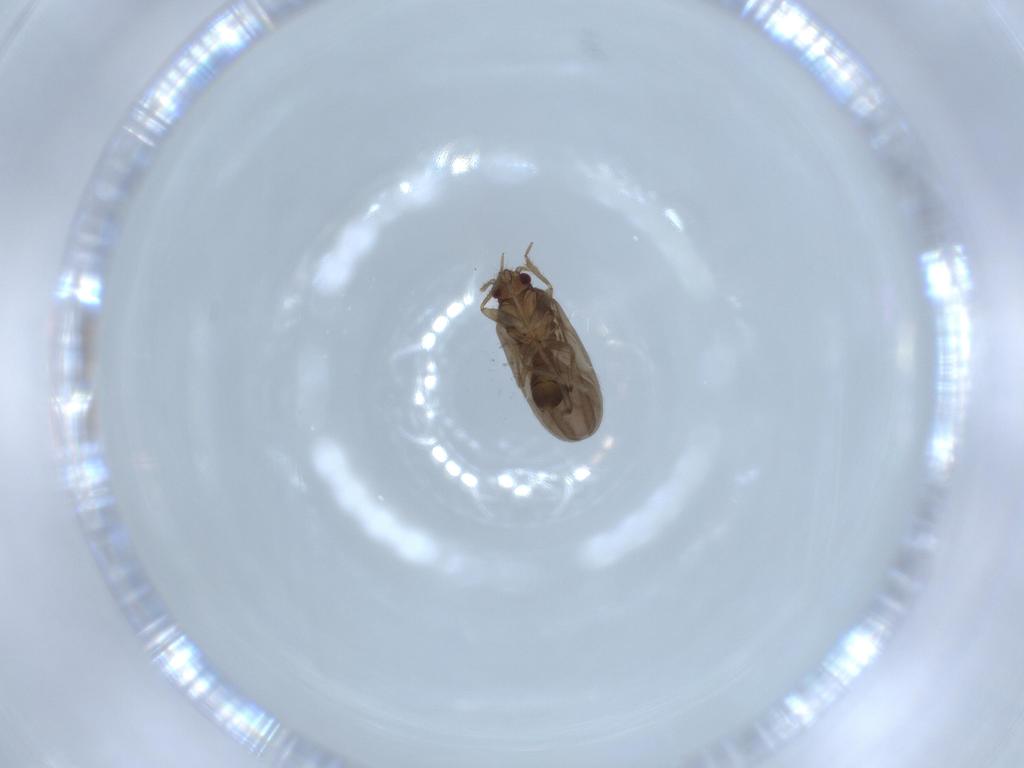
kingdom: Animalia
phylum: Arthropoda
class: Insecta
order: Hemiptera
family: Ceratocombidae
